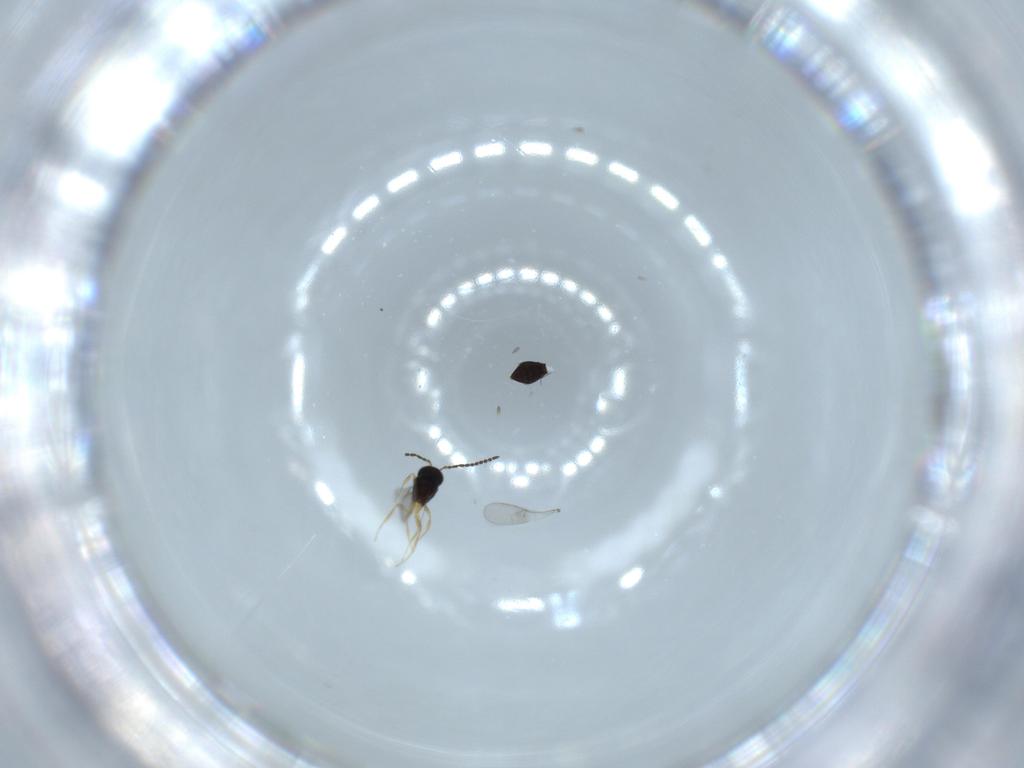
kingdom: Animalia
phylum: Arthropoda
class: Insecta
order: Hymenoptera
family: Scelionidae
